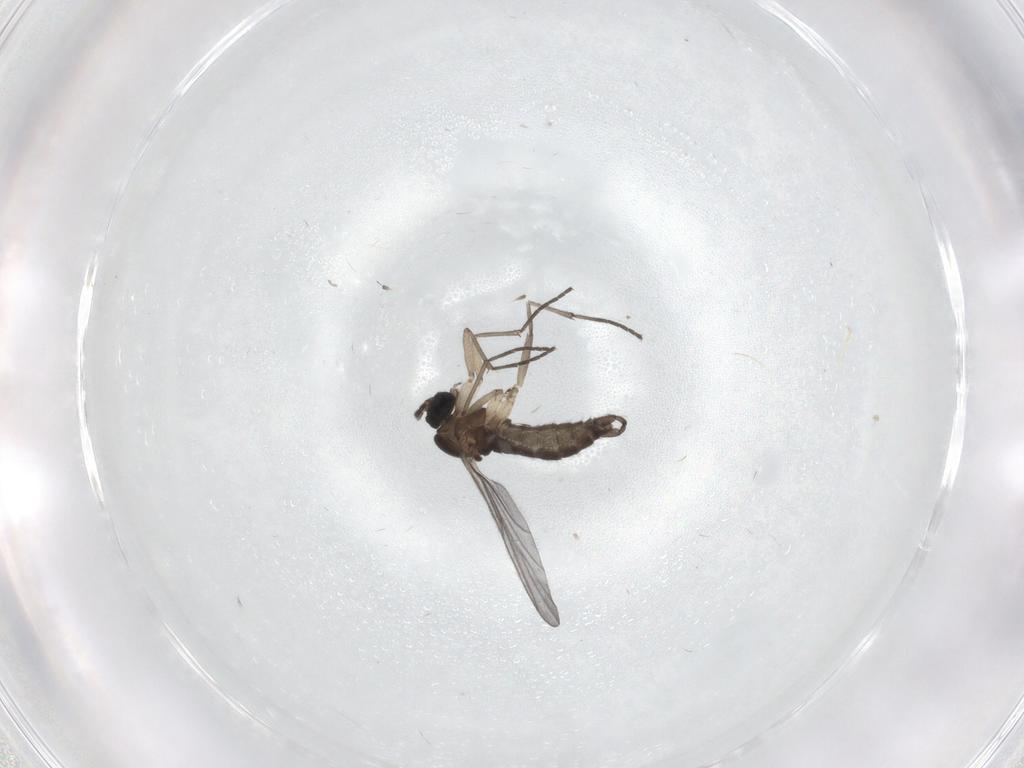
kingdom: Animalia
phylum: Arthropoda
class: Insecta
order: Diptera
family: Sciaridae
